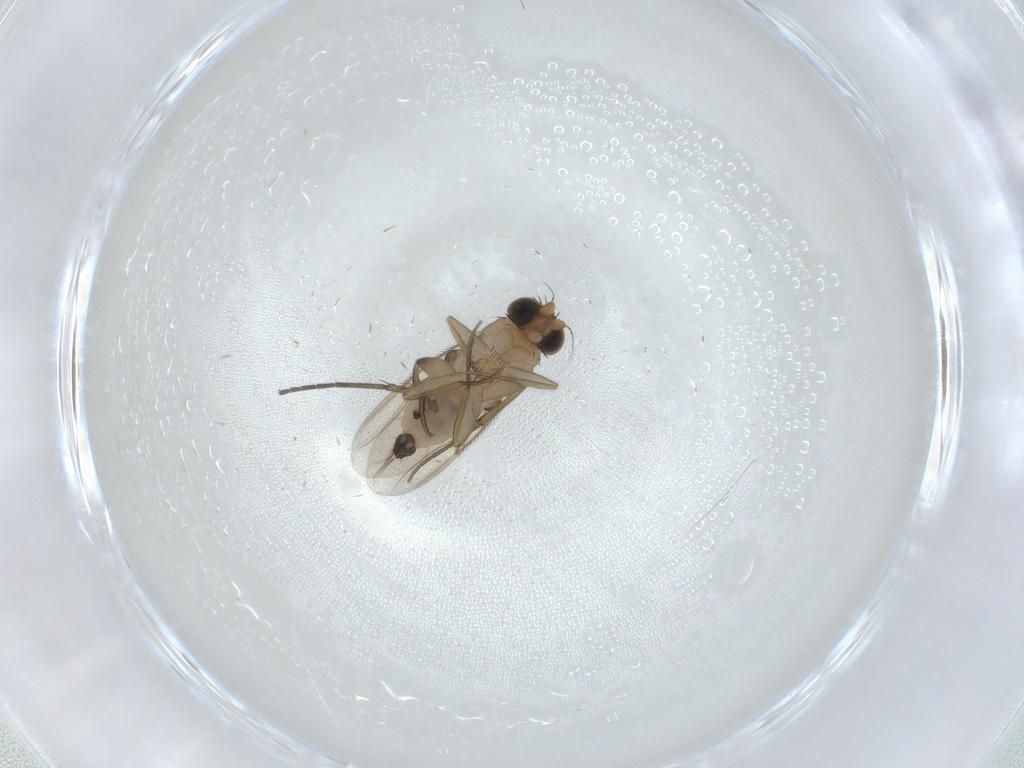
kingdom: Animalia
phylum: Arthropoda
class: Insecta
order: Diptera
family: Phoridae
